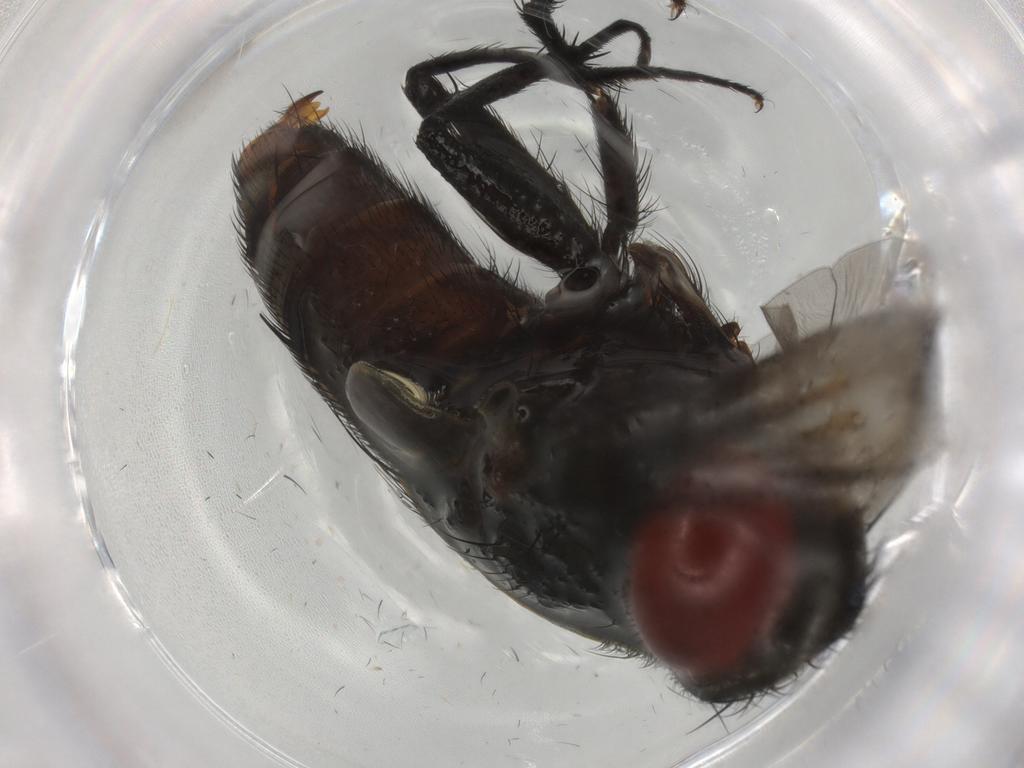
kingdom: Animalia
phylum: Arthropoda
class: Insecta
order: Diptera
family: Sarcophagidae
